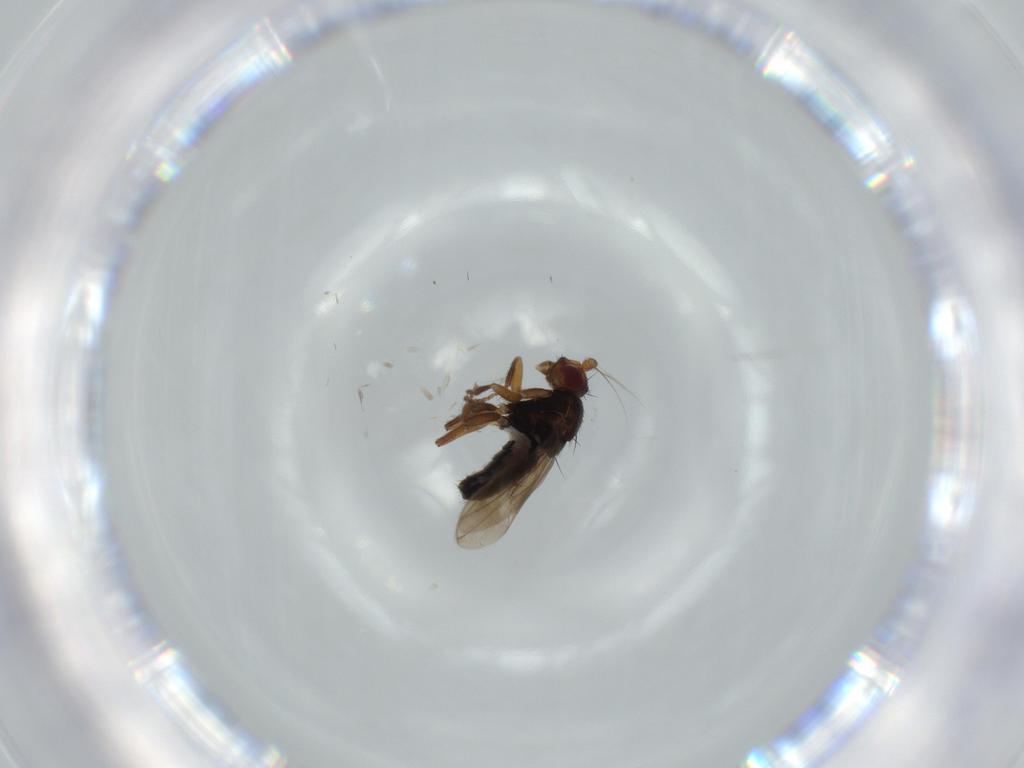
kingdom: Animalia
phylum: Arthropoda
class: Insecta
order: Diptera
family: Sphaeroceridae
